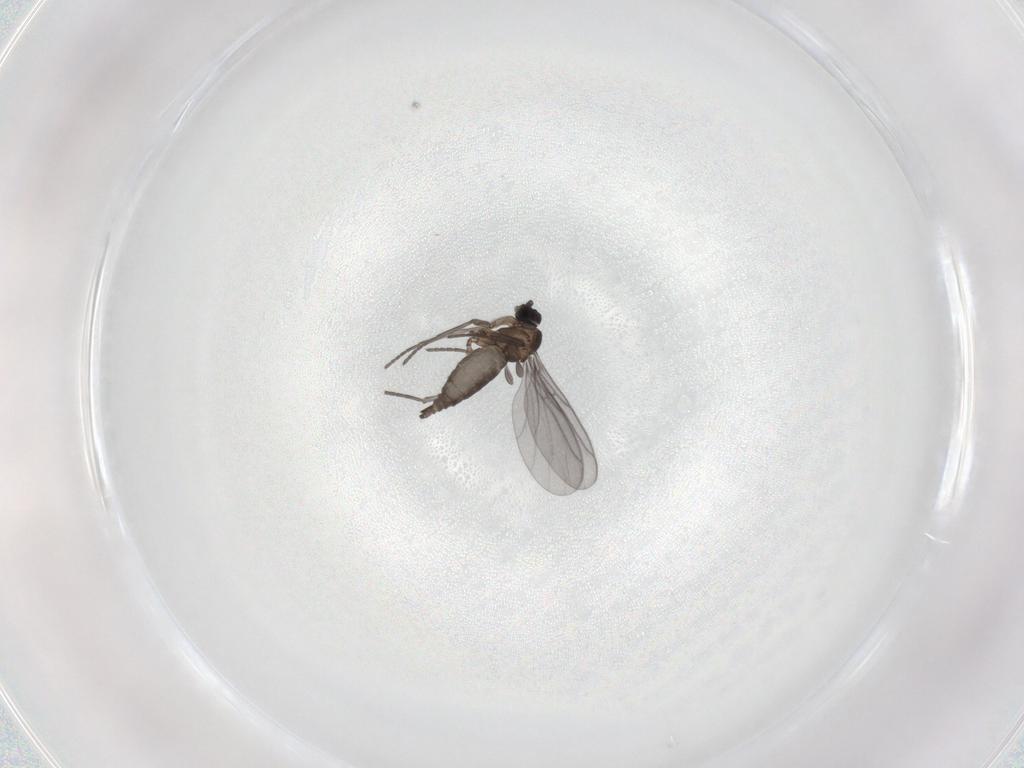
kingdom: Animalia
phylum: Arthropoda
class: Insecta
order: Diptera
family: Sciaridae
